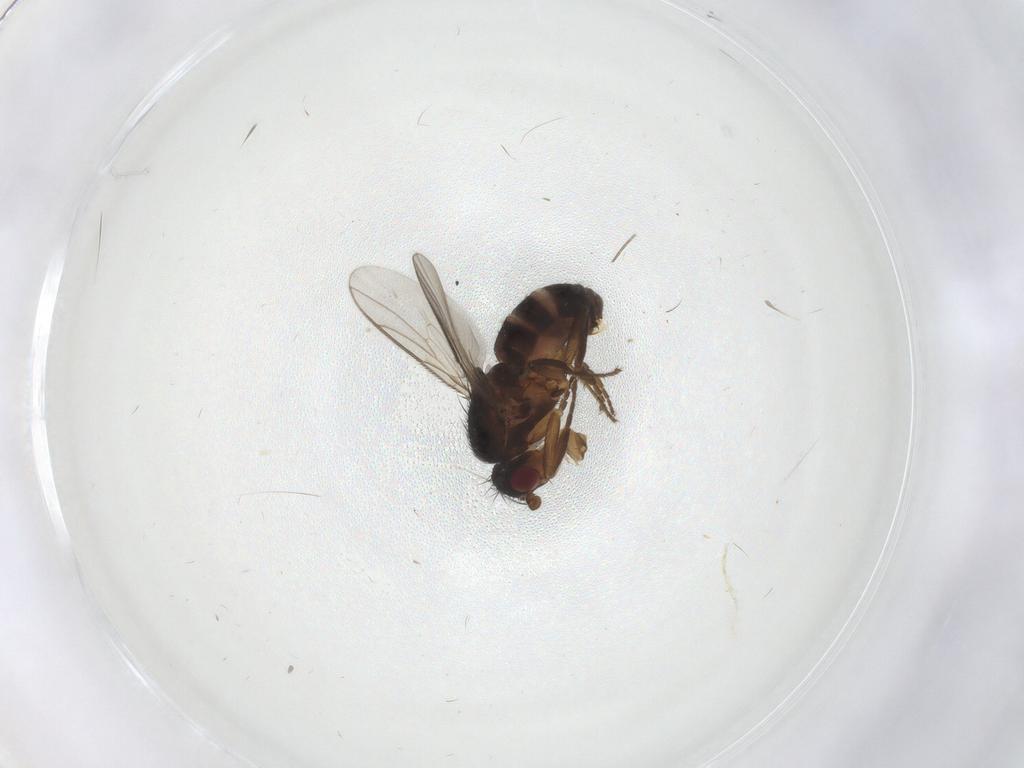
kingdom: Animalia
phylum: Arthropoda
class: Insecta
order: Diptera
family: Sphaeroceridae
